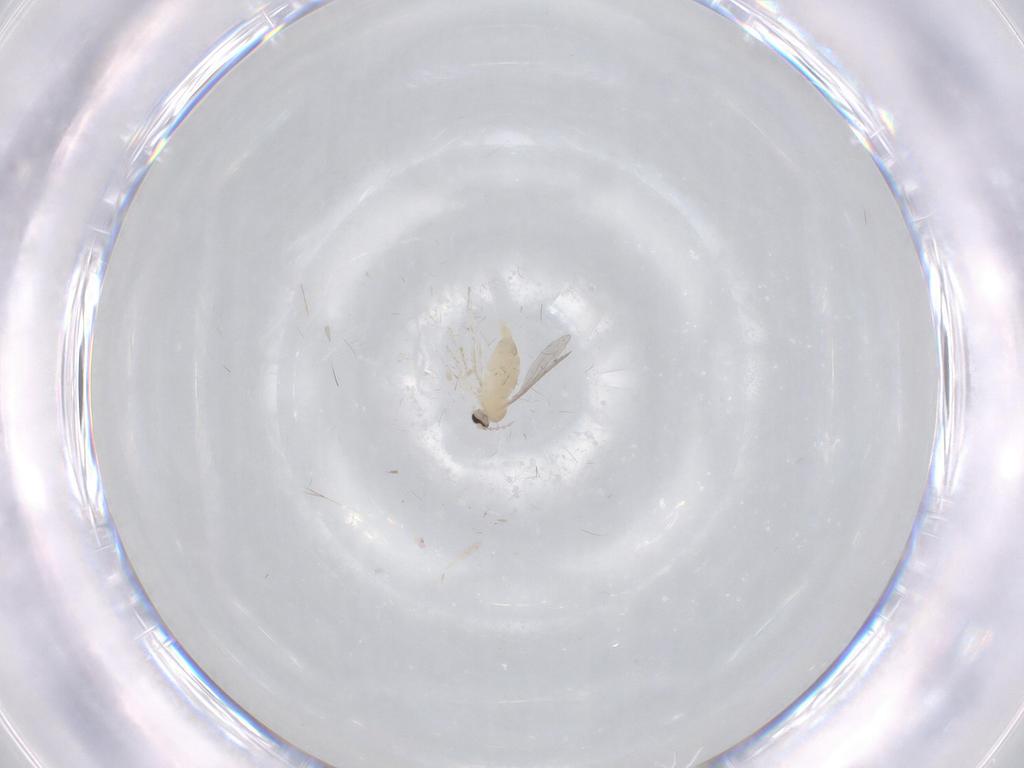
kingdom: Animalia
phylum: Arthropoda
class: Insecta
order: Diptera
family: Cecidomyiidae
